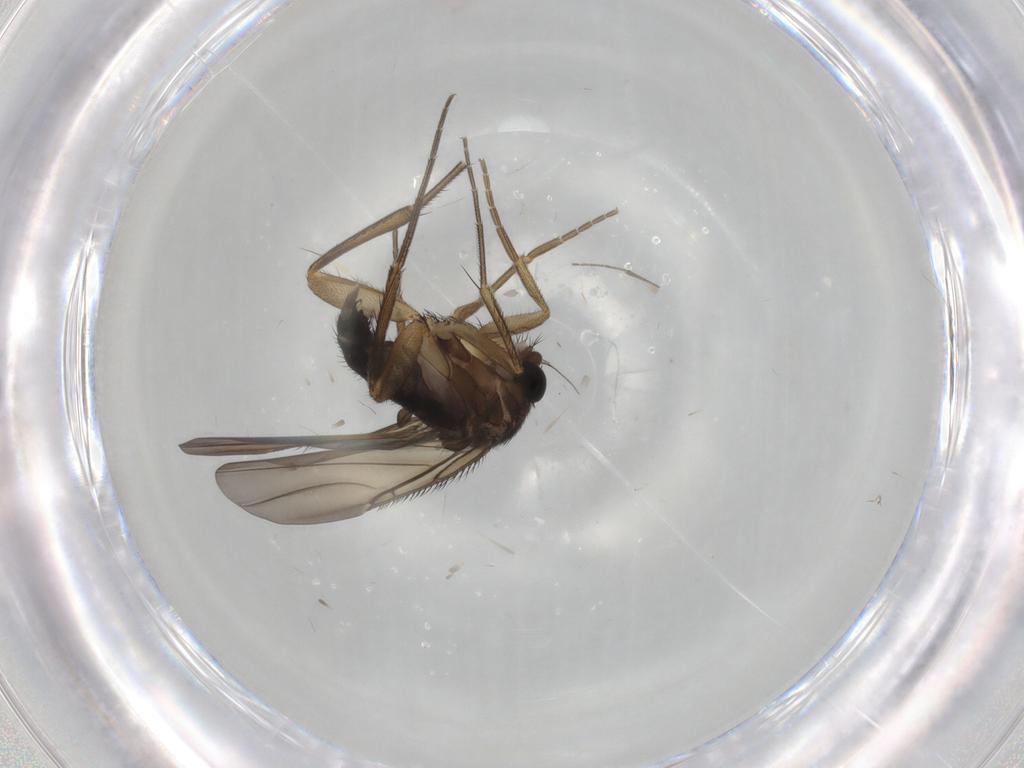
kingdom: Animalia
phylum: Arthropoda
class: Insecta
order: Diptera
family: Phoridae
